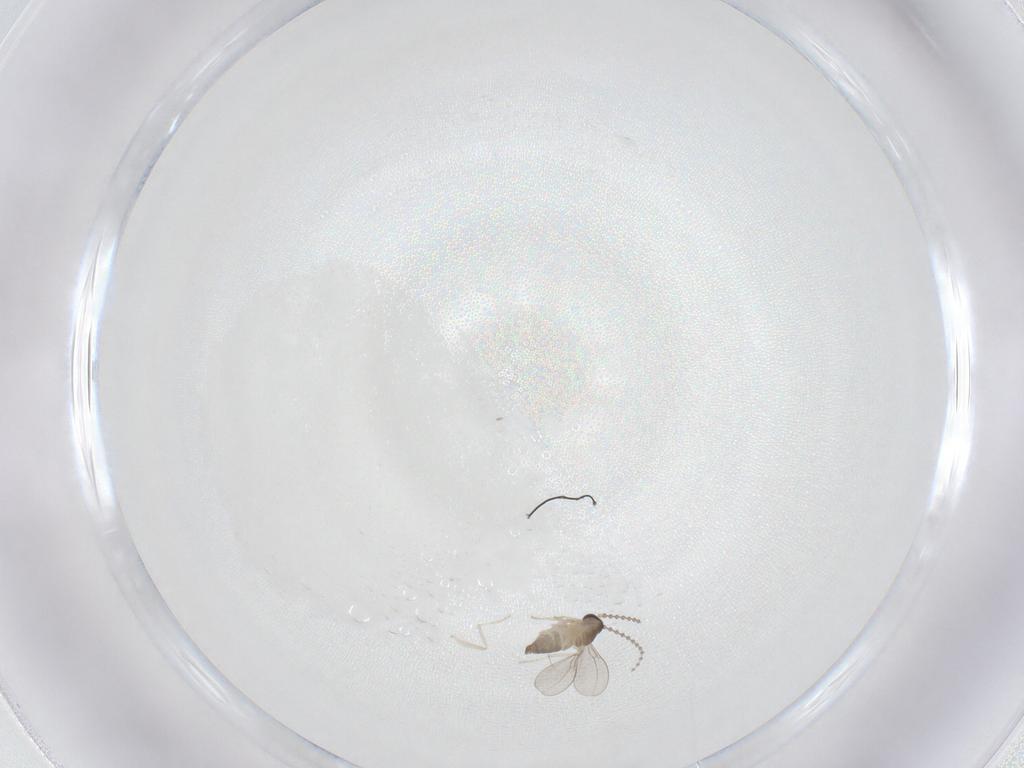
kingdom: Animalia
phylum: Arthropoda
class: Insecta
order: Diptera
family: Cecidomyiidae
